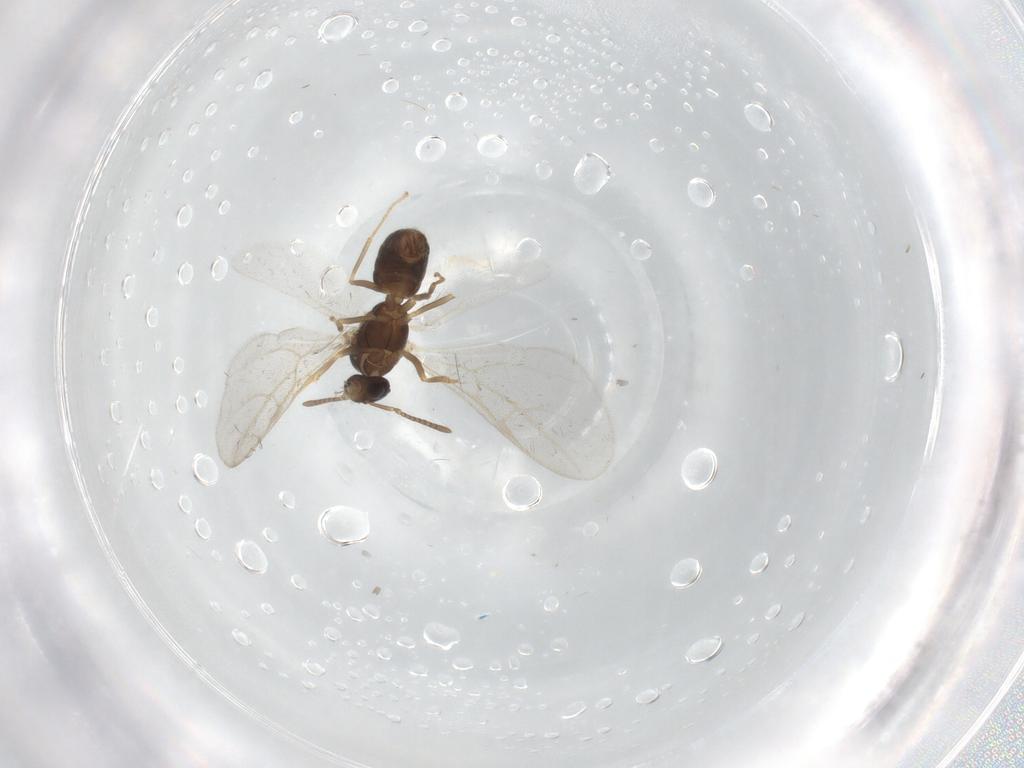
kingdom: Animalia
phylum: Arthropoda
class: Insecta
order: Hymenoptera
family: Formicidae
